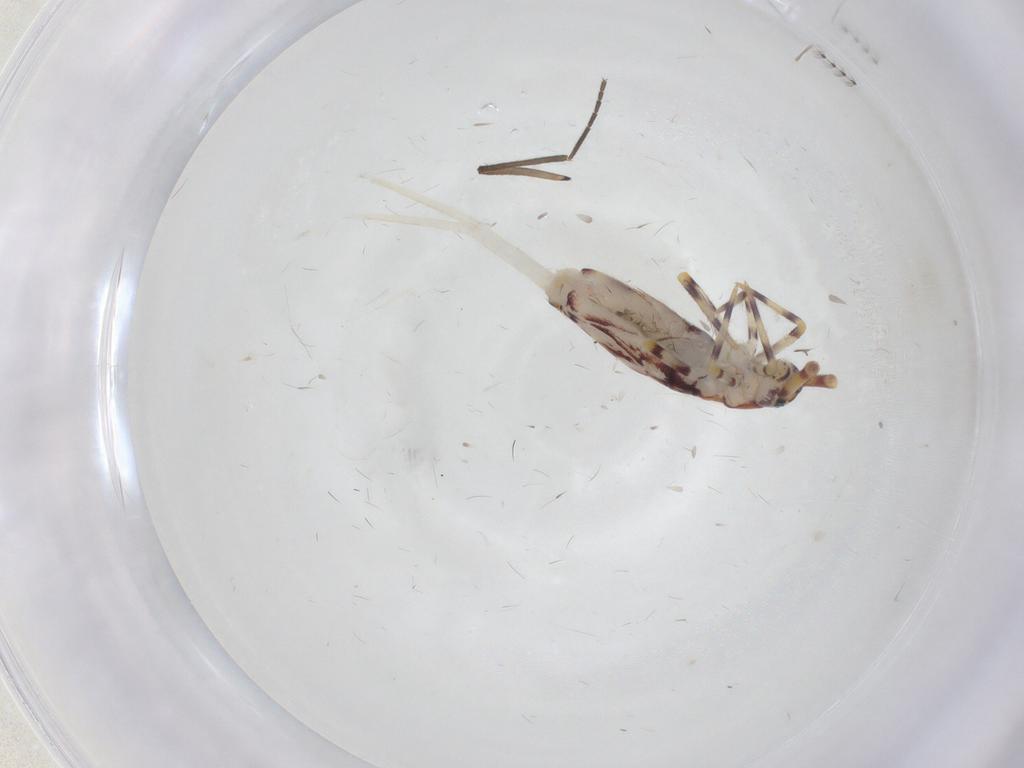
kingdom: Animalia
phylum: Arthropoda
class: Collembola
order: Entomobryomorpha
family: Entomobryidae
